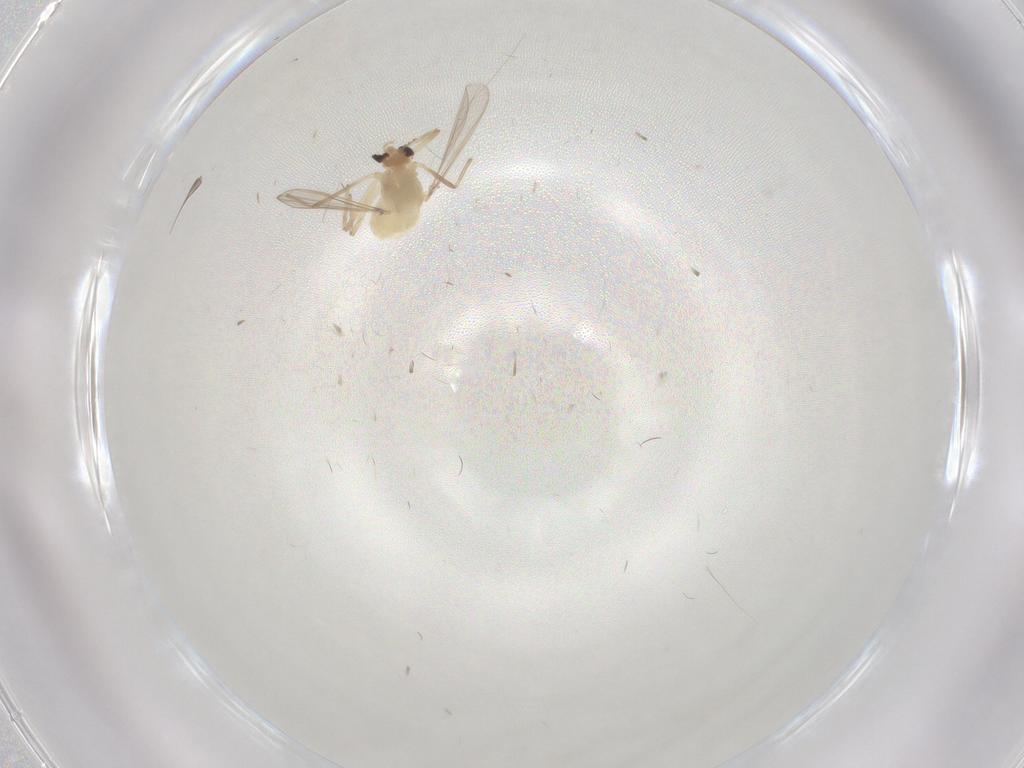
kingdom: Animalia
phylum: Arthropoda
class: Insecta
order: Diptera
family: Chironomidae
